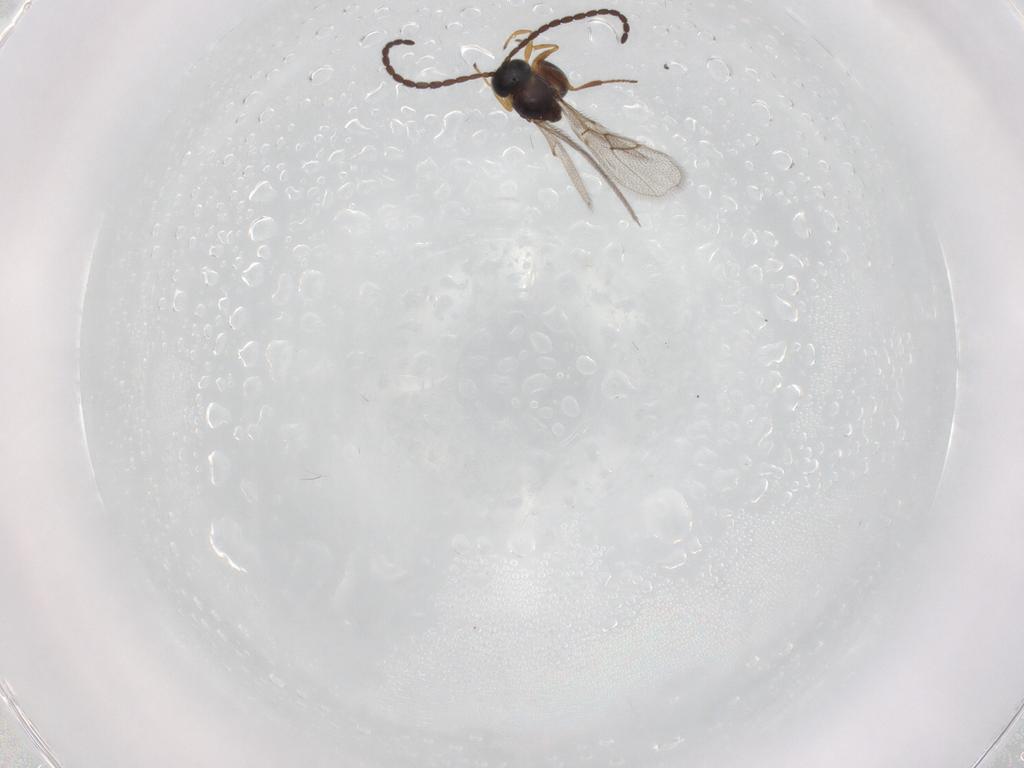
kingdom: Animalia
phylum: Arthropoda
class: Insecta
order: Hymenoptera
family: Figitidae
